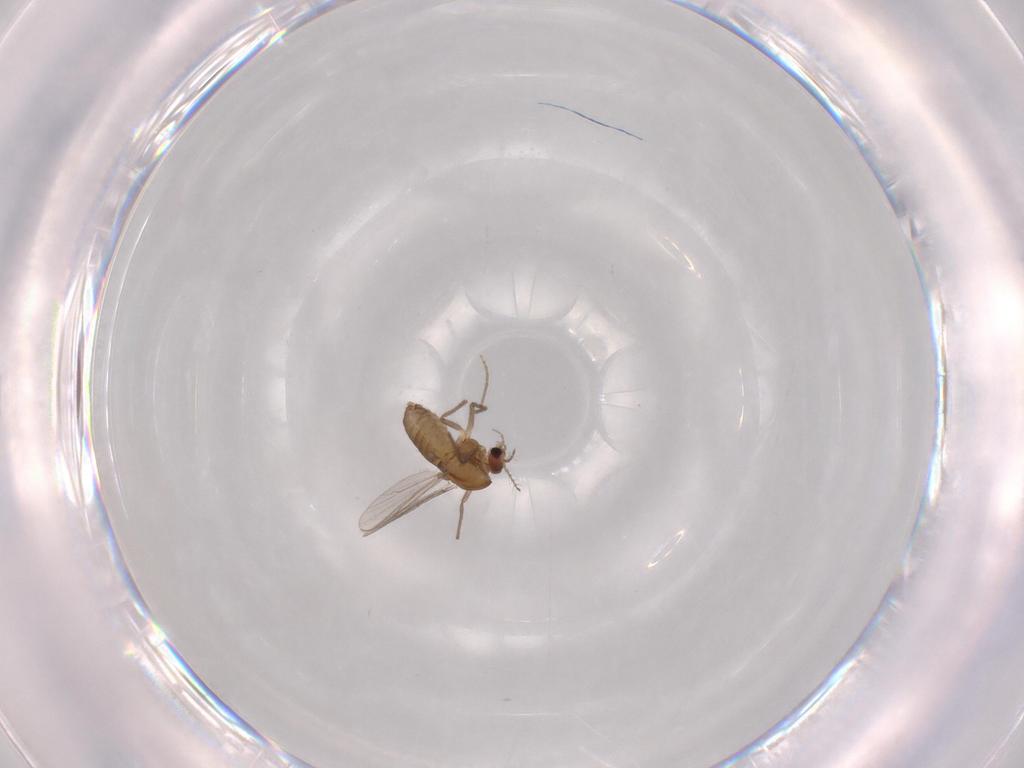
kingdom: Animalia
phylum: Arthropoda
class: Insecta
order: Diptera
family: Chironomidae
